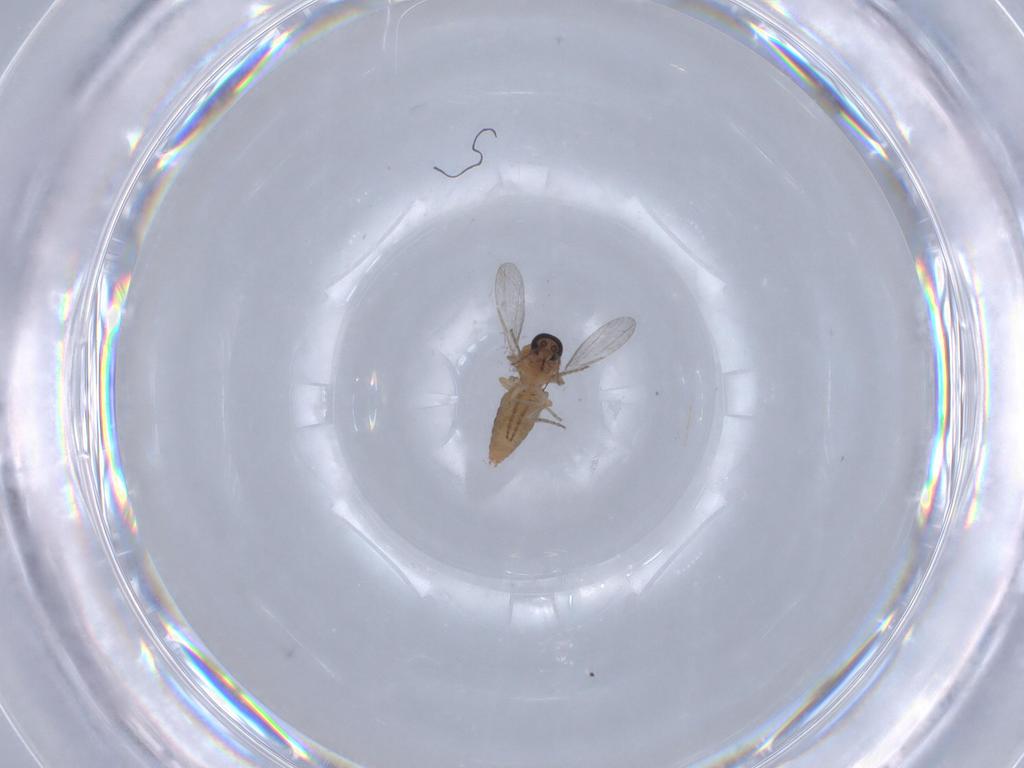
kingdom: Animalia
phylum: Arthropoda
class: Insecta
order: Diptera
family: Ceratopogonidae
